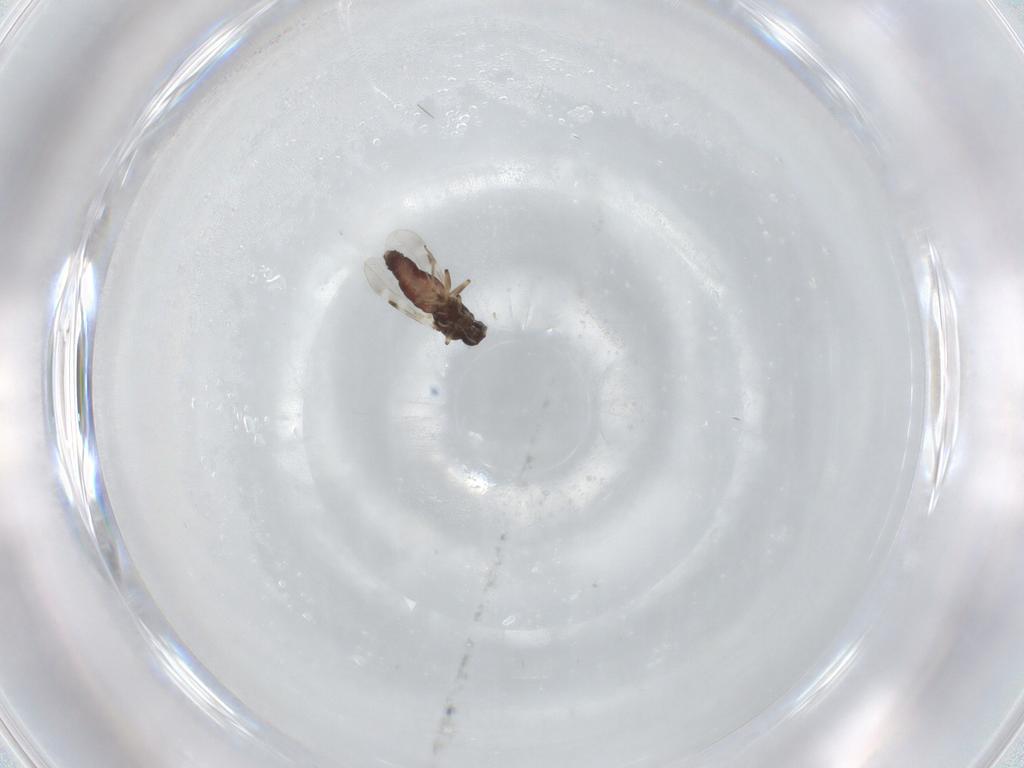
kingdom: Animalia
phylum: Arthropoda
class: Insecta
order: Diptera
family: Cecidomyiidae
